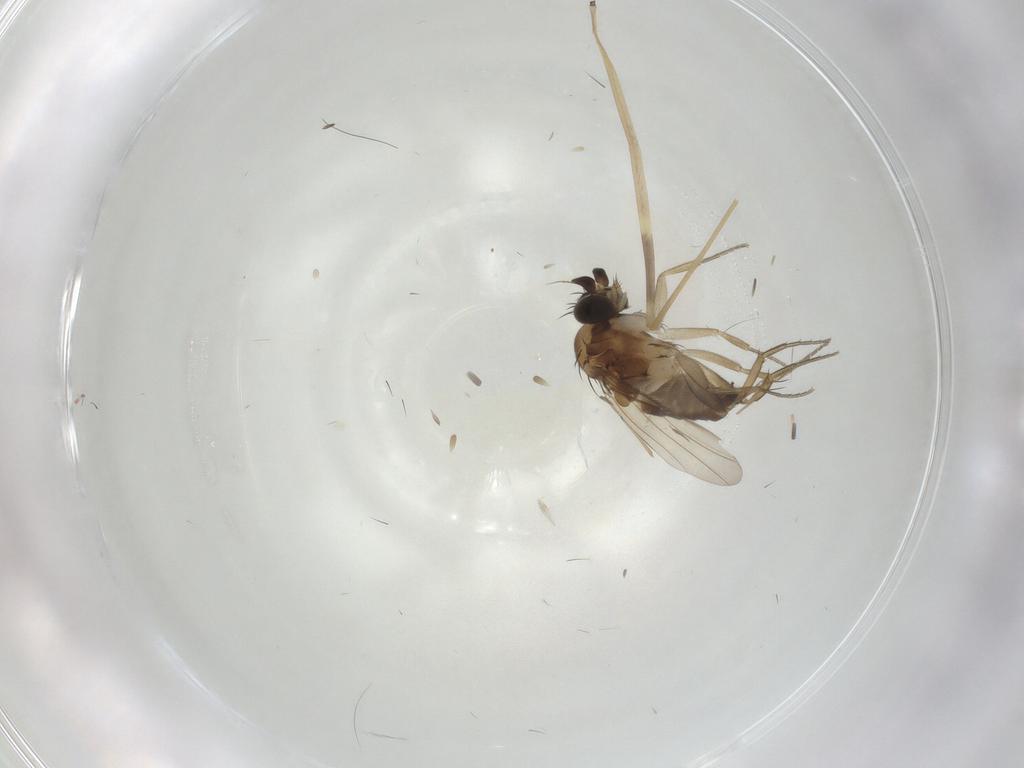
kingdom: Animalia
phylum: Arthropoda
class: Insecta
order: Diptera
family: Phoridae
